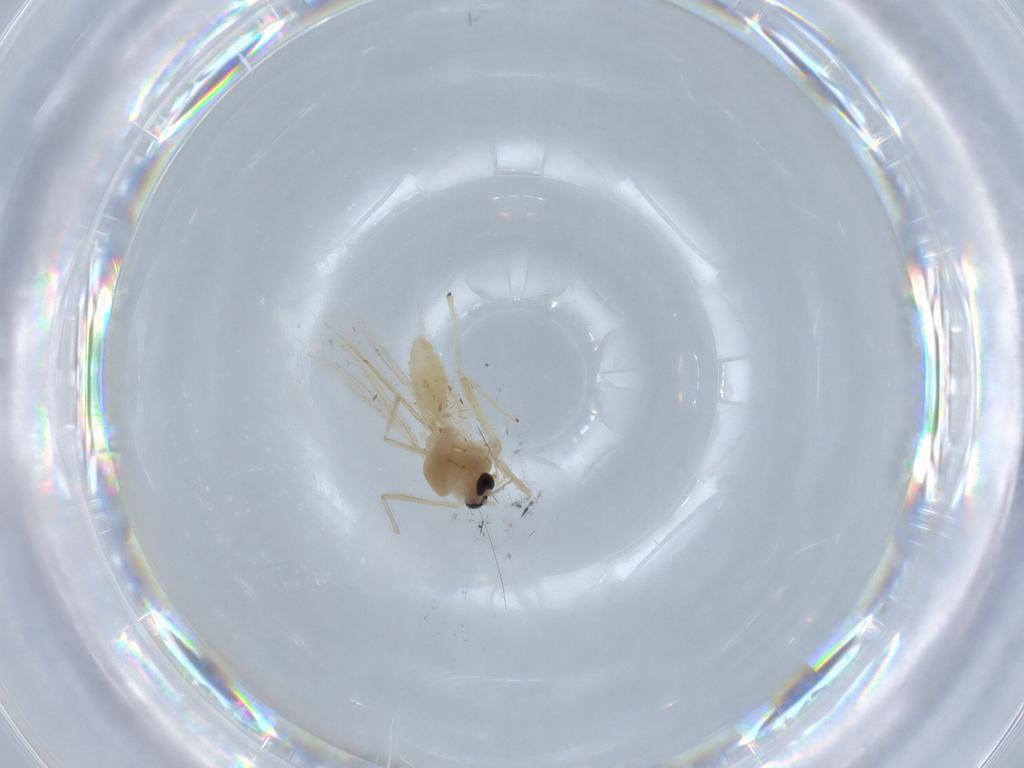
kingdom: Animalia
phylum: Arthropoda
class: Insecta
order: Diptera
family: Chironomidae
